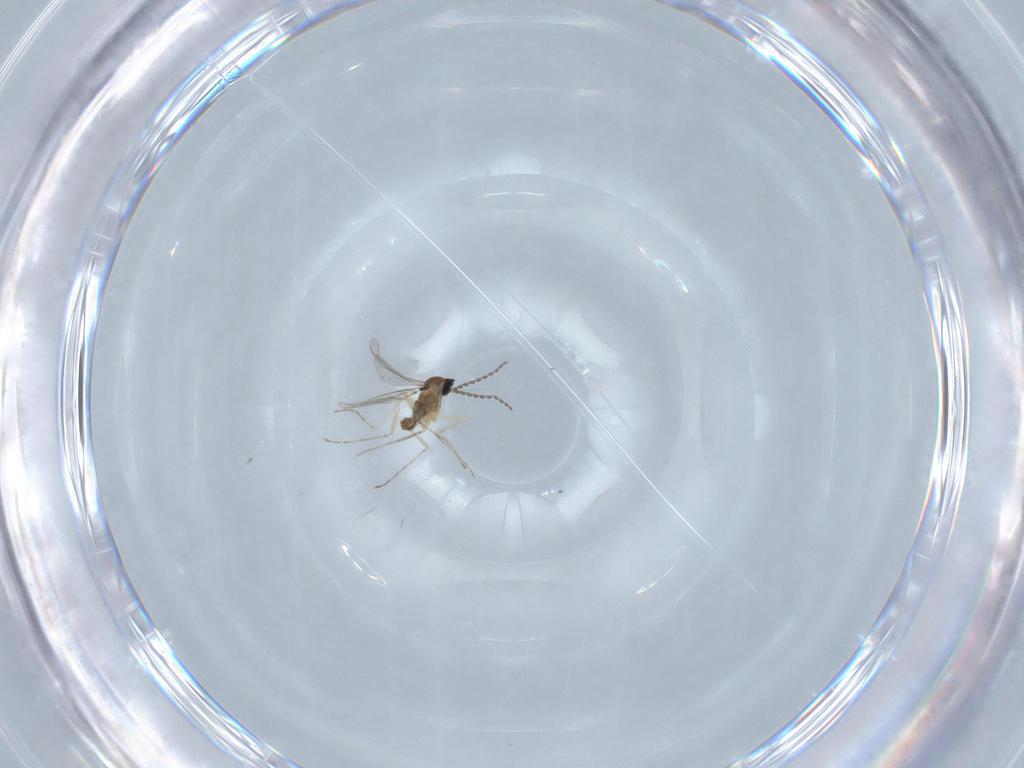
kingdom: Animalia
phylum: Arthropoda
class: Insecta
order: Diptera
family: Cecidomyiidae
